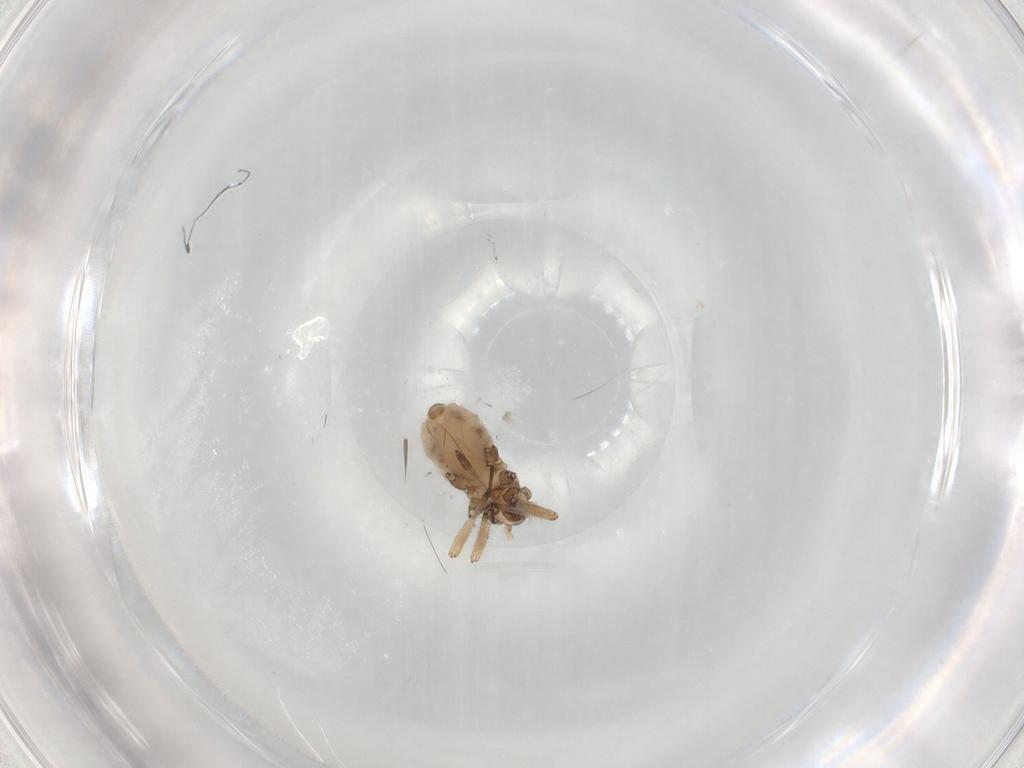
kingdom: Animalia
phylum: Arthropoda
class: Insecta
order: Hemiptera
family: Aphididae
